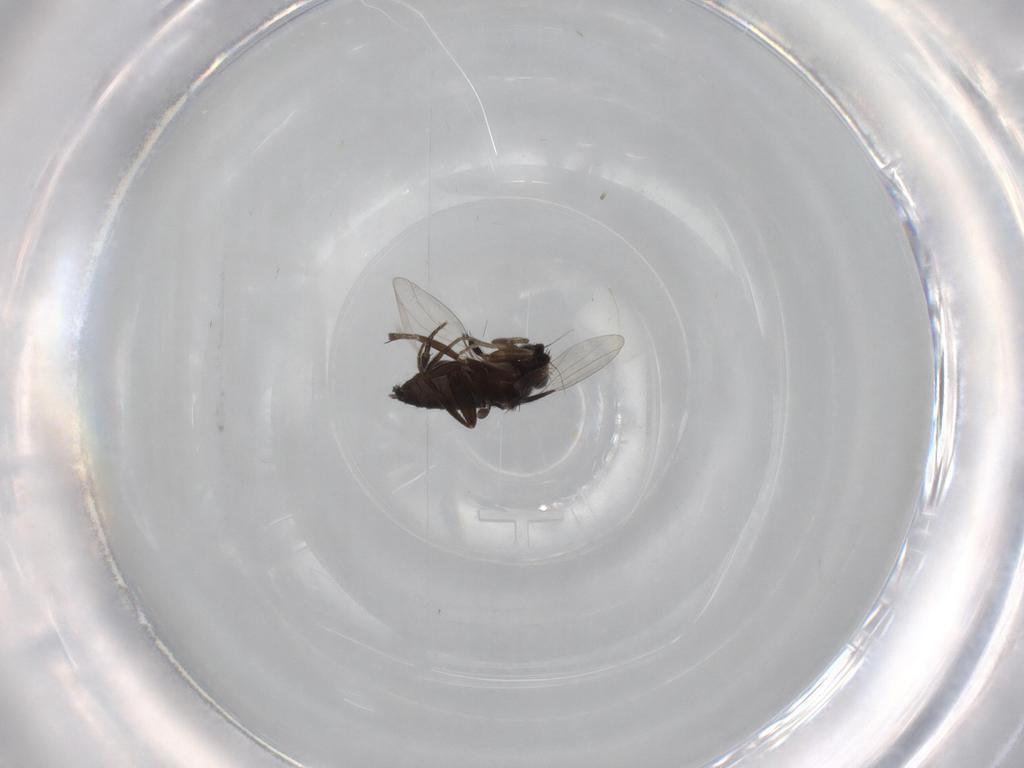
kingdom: Animalia
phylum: Arthropoda
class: Insecta
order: Diptera
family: Phoridae
